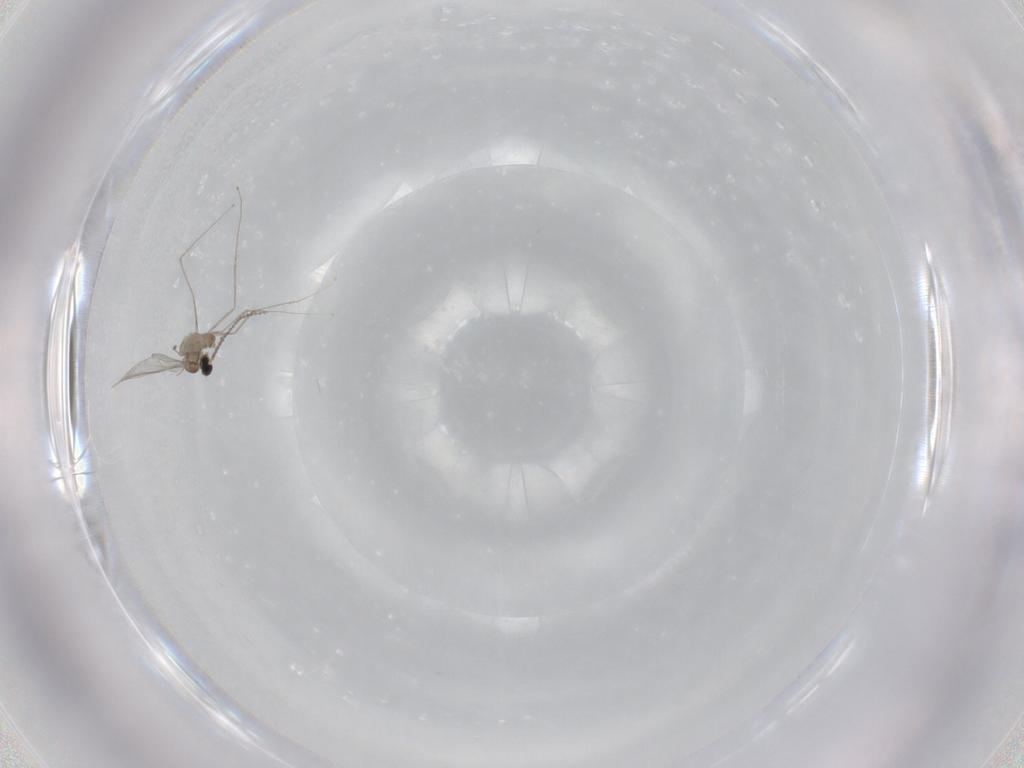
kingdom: Animalia
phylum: Arthropoda
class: Insecta
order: Diptera
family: Cecidomyiidae
